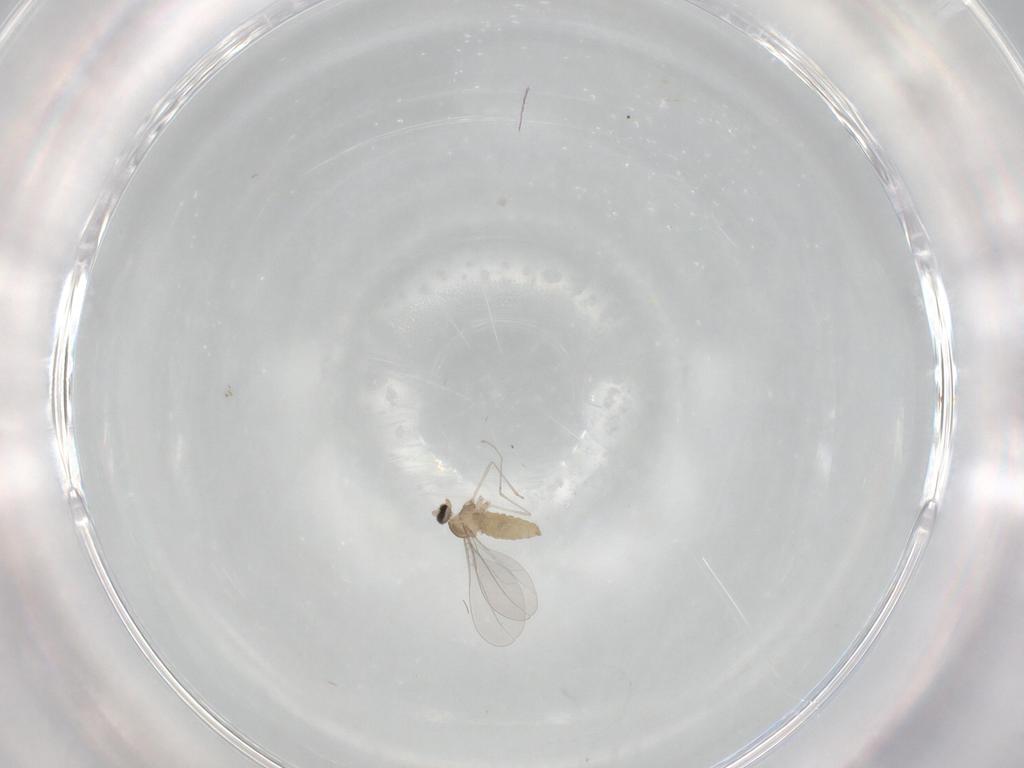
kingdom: Animalia
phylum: Arthropoda
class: Insecta
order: Diptera
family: Cecidomyiidae
